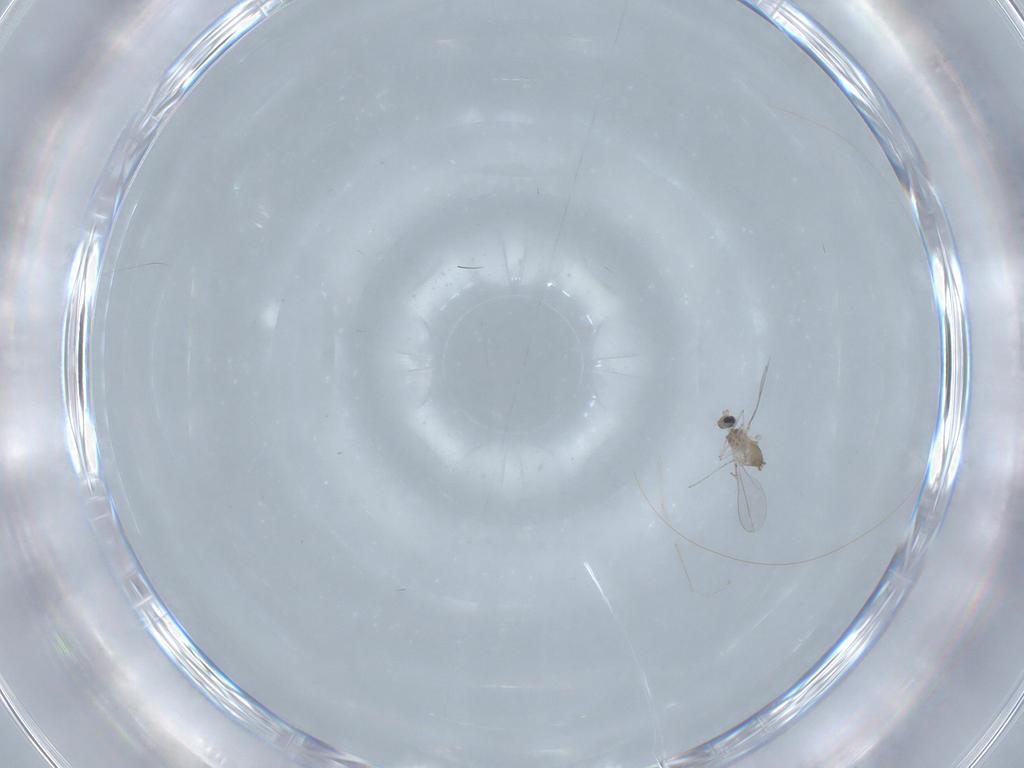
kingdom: Animalia
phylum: Arthropoda
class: Insecta
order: Diptera
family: Cecidomyiidae
